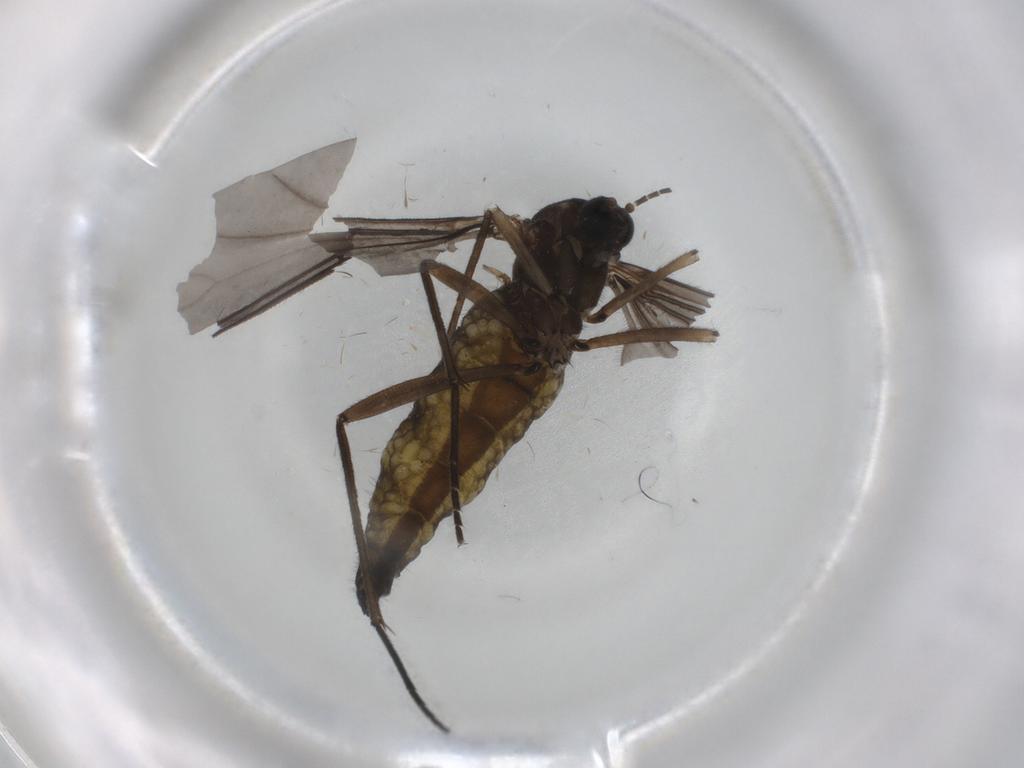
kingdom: Animalia
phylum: Arthropoda
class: Insecta
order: Diptera
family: Sciaridae
